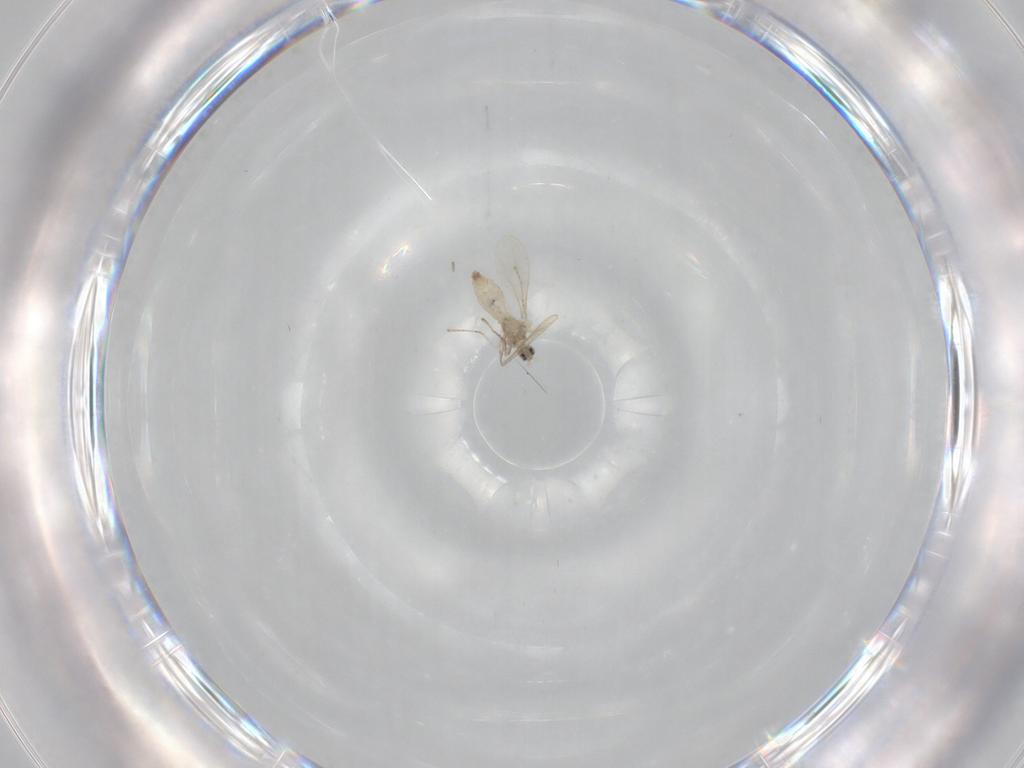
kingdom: Animalia
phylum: Arthropoda
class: Insecta
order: Diptera
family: Cecidomyiidae
